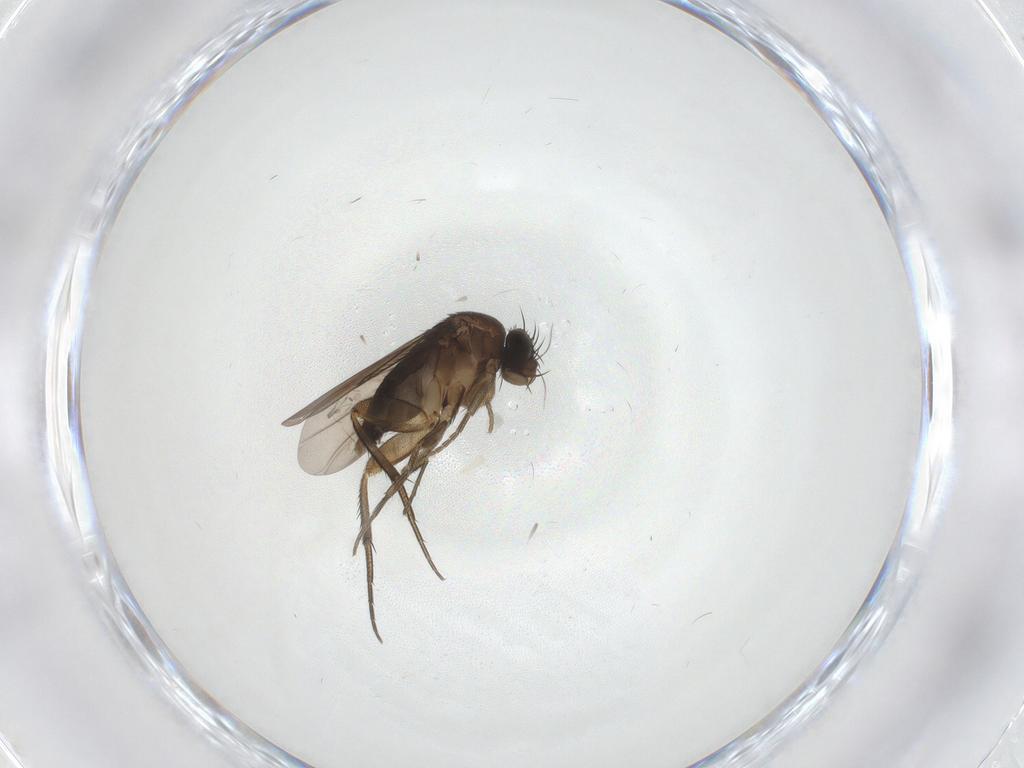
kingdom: Animalia
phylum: Arthropoda
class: Insecta
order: Diptera
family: Phoridae
